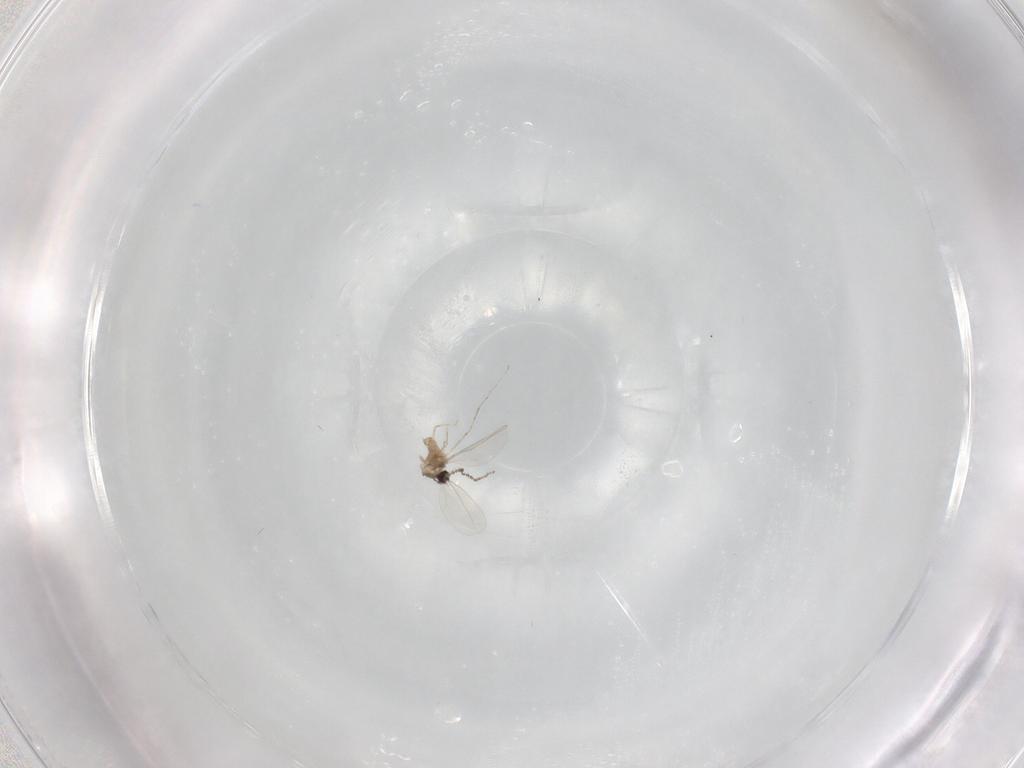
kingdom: Animalia
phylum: Arthropoda
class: Insecta
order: Diptera
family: Cecidomyiidae
